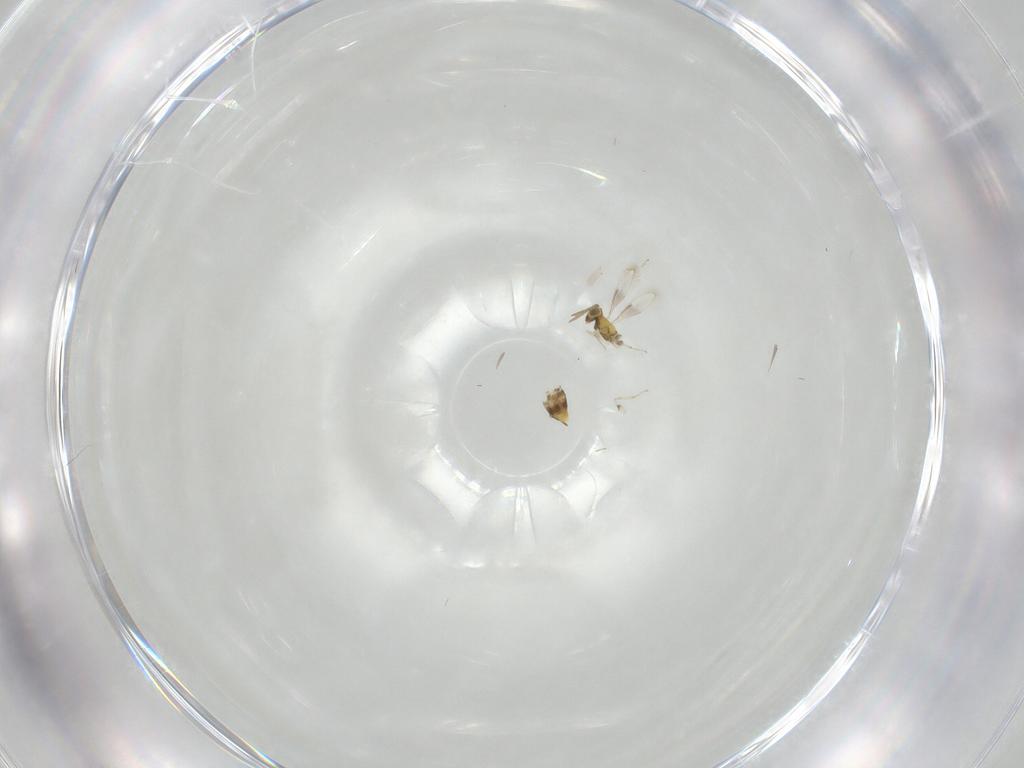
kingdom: Animalia
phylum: Arthropoda
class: Insecta
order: Hymenoptera
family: Aphelinidae
